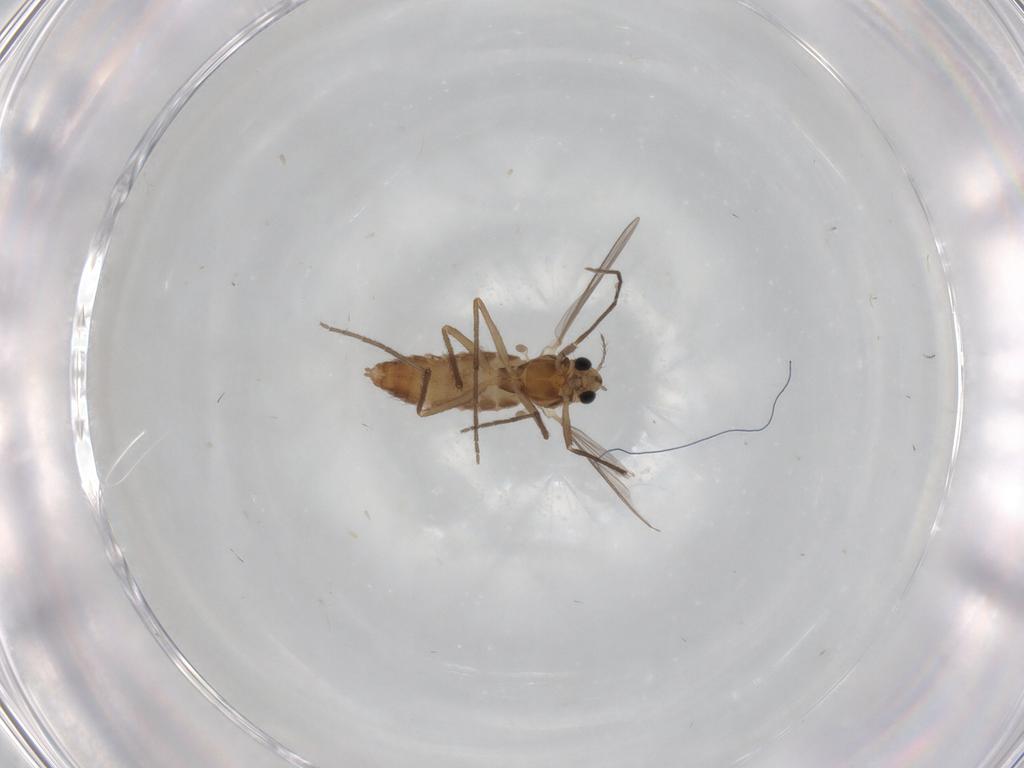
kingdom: Animalia
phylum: Arthropoda
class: Insecta
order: Diptera
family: Chironomidae
